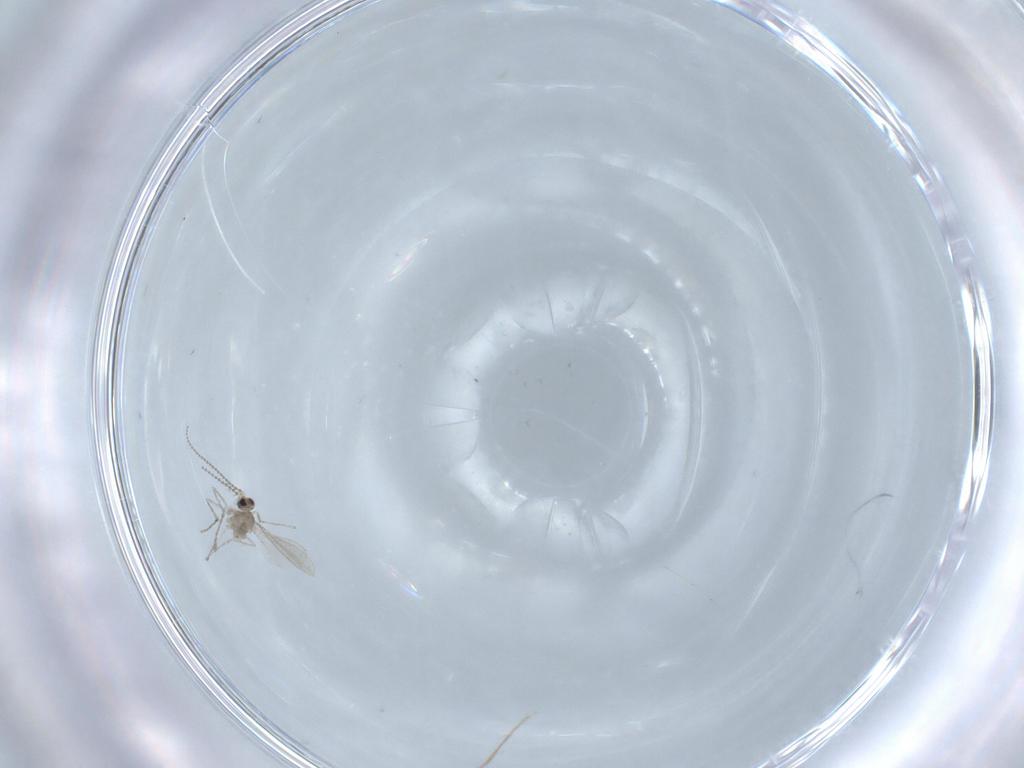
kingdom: Animalia
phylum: Arthropoda
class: Insecta
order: Diptera
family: Cecidomyiidae
